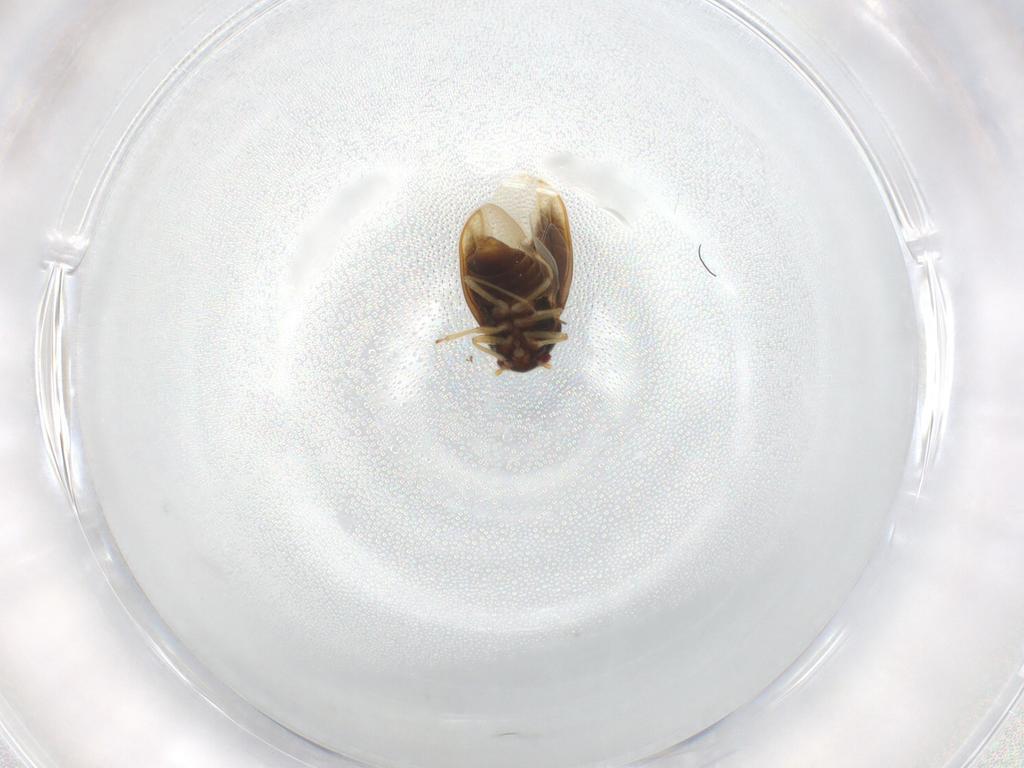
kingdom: Animalia
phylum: Arthropoda
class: Insecta
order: Hemiptera
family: Schizopteridae
